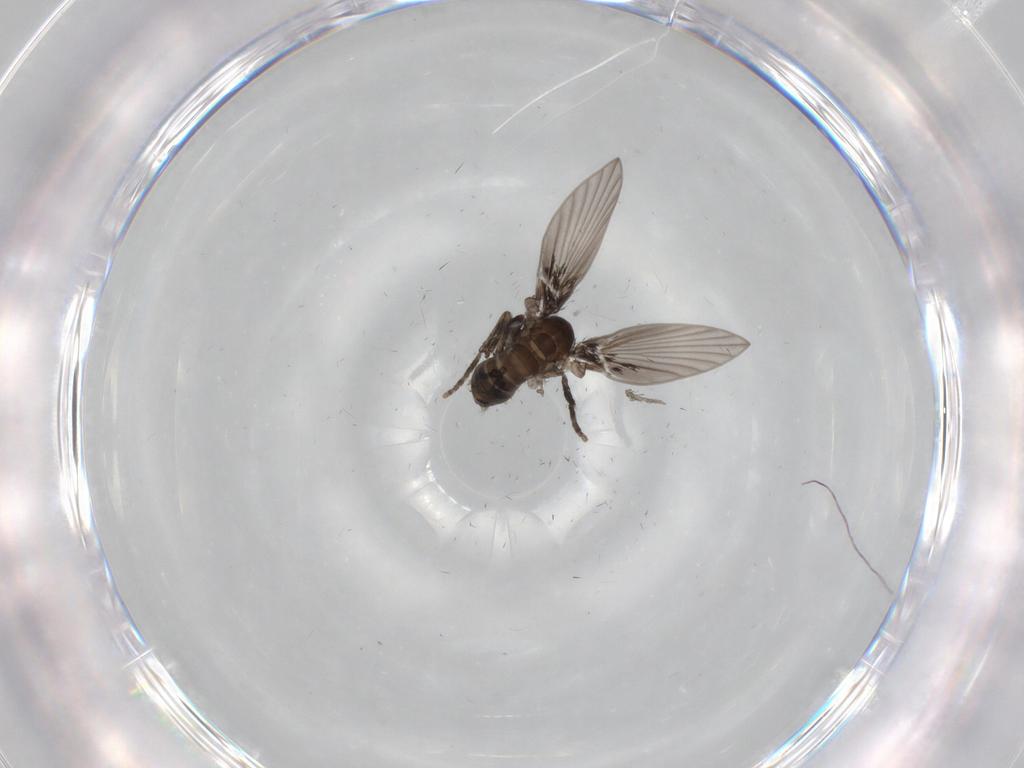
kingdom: Animalia
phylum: Arthropoda
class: Insecta
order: Diptera
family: Psychodidae
